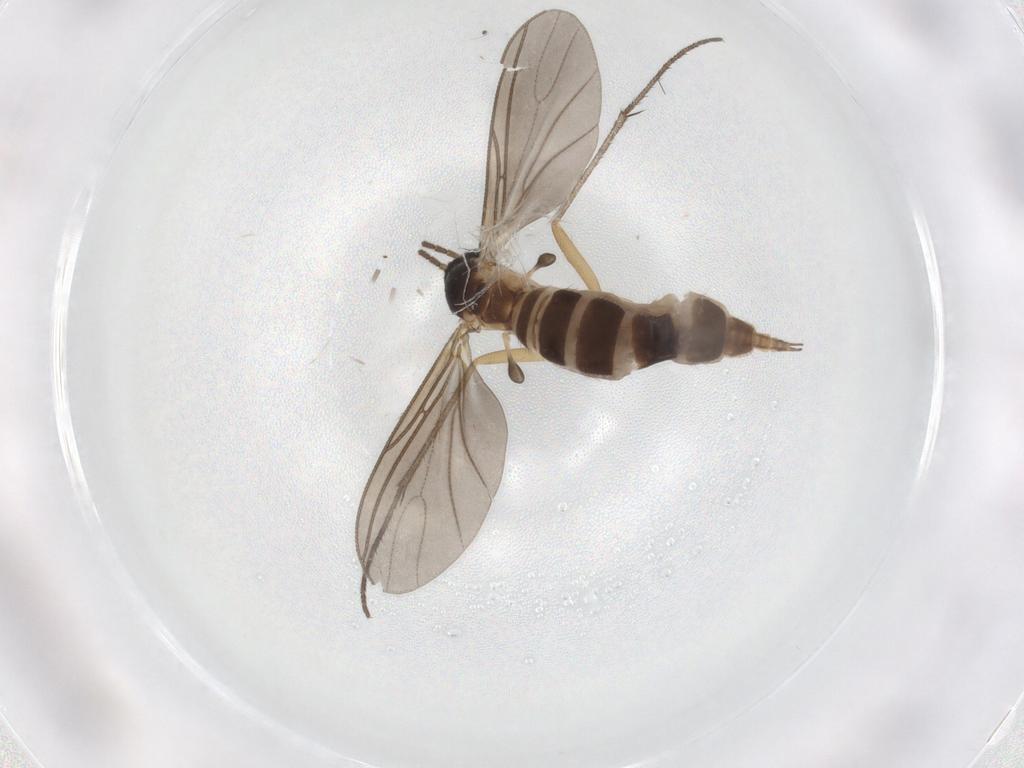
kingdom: Animalia
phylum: Arthropoda
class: Insecta
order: Diptera
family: Sciaridae
